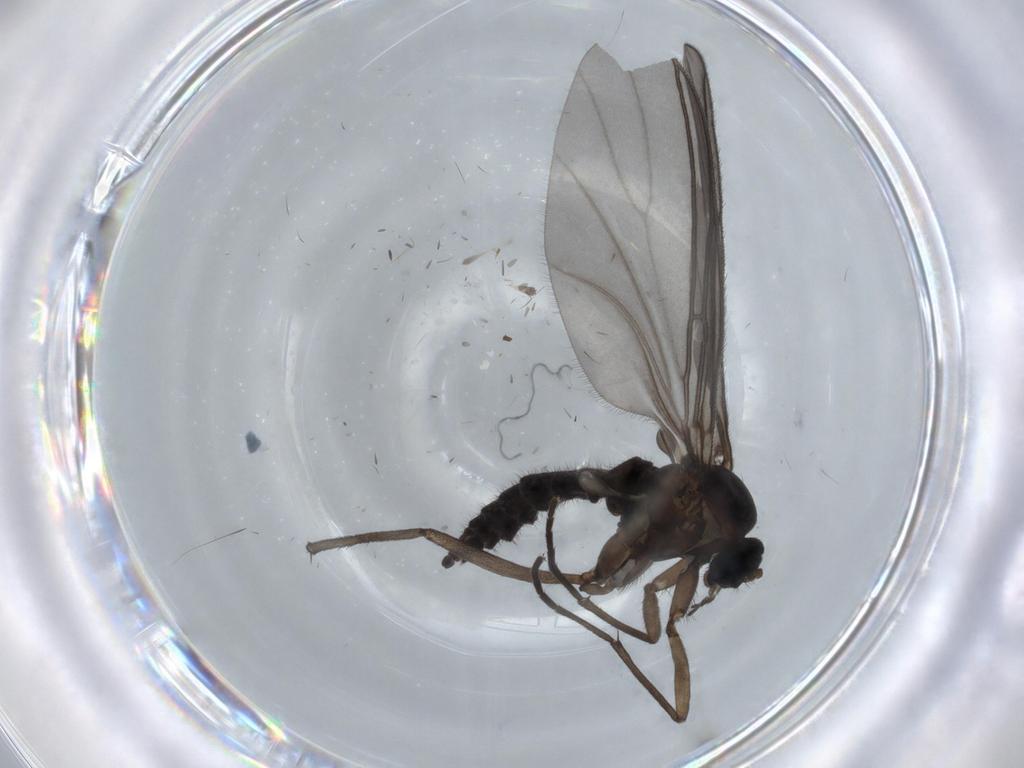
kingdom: Animalia
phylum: Arthropoda
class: Insecta
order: Diptera
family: Sciaridae
